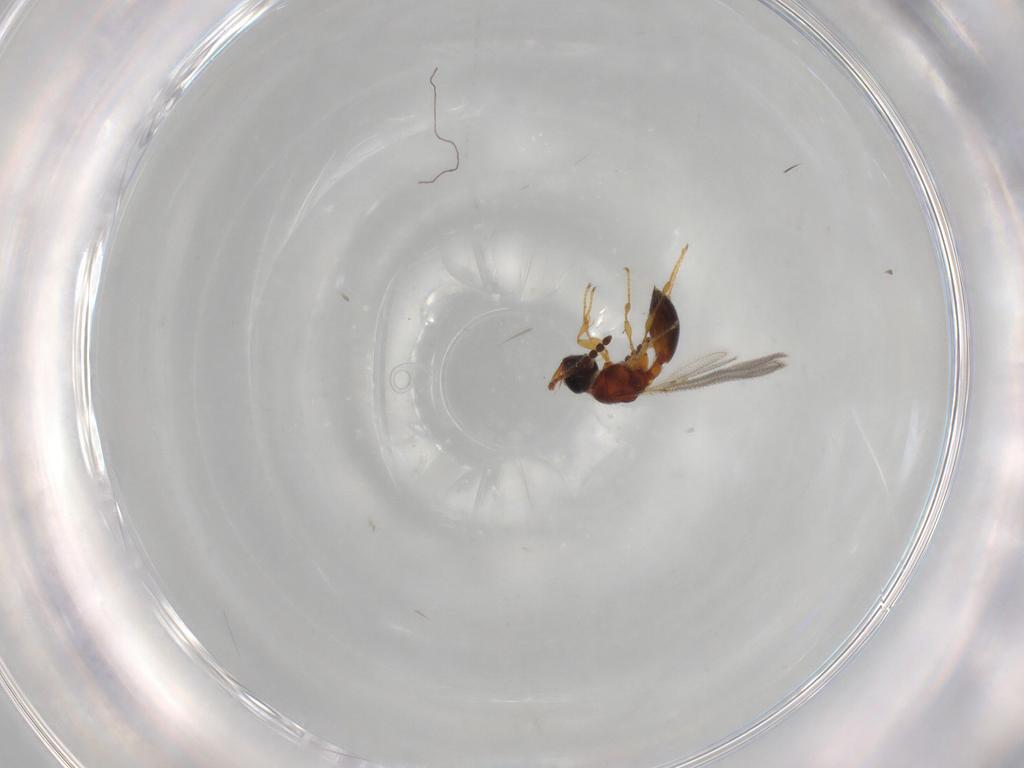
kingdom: Animalia
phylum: Arthropoda
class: Insecta
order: Hymenoptera
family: Diapriidae
